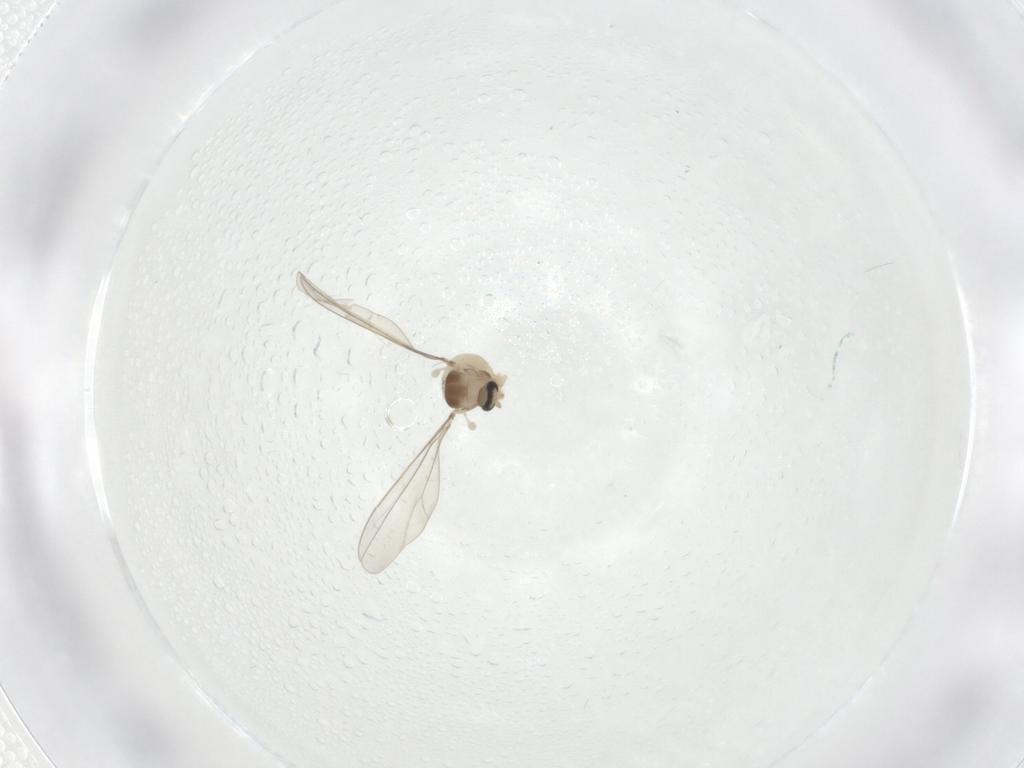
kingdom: Animalia
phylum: Arthropoda
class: Insecta
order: Diptera
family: Cecidomyiidae
